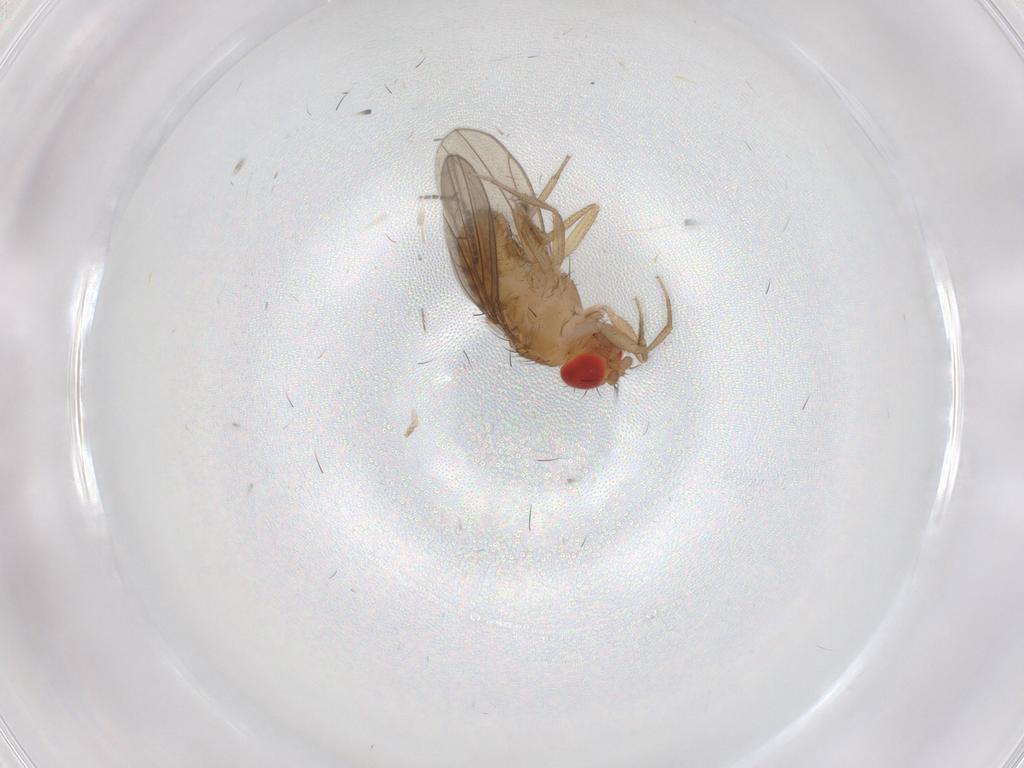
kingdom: Animalia
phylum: Arthropoda
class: Insecta
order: Diptera
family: Drosophilidae
